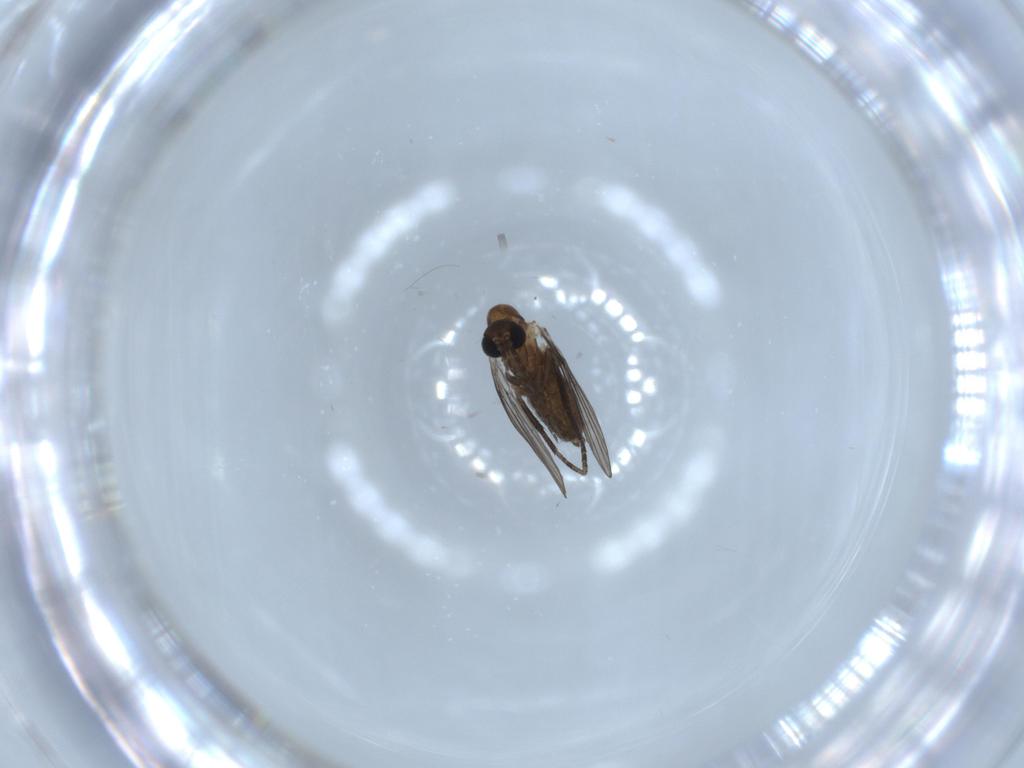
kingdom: Animalia
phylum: Arthropoda
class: Insecta
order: Diptera
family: Psychodidae
